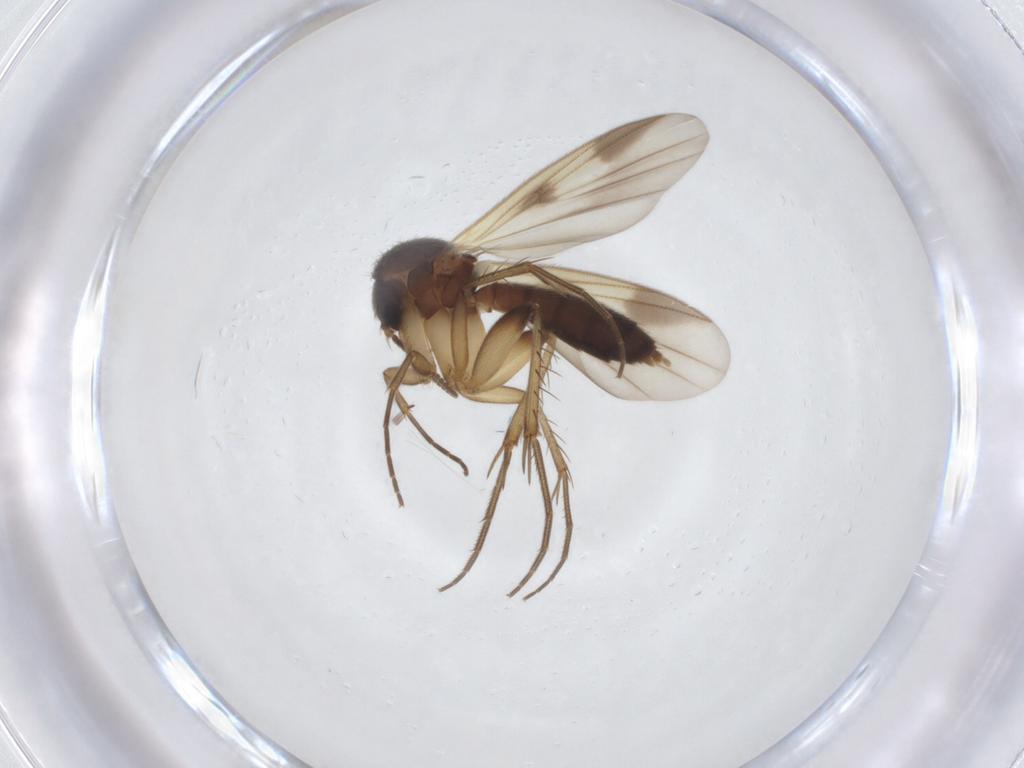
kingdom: Animalia
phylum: Arthropoda
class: Insecta
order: Diptera
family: Mycetophilidae
